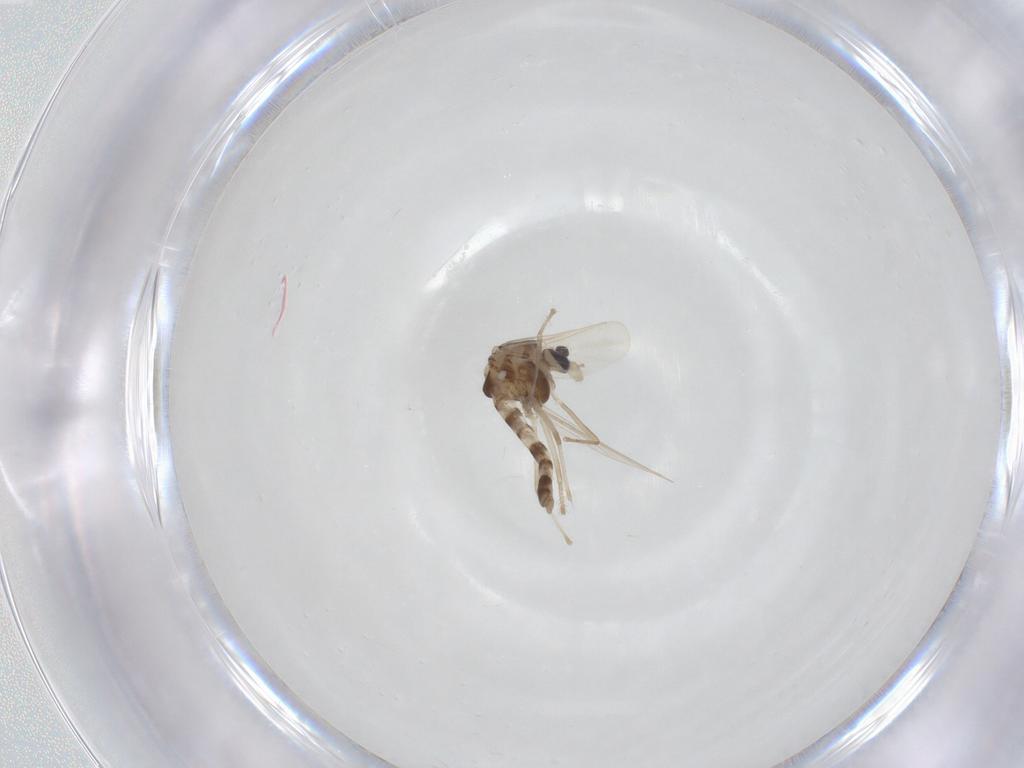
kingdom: Animalia
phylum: Arthropoda
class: Insecta
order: Diptera
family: Chironomidae
